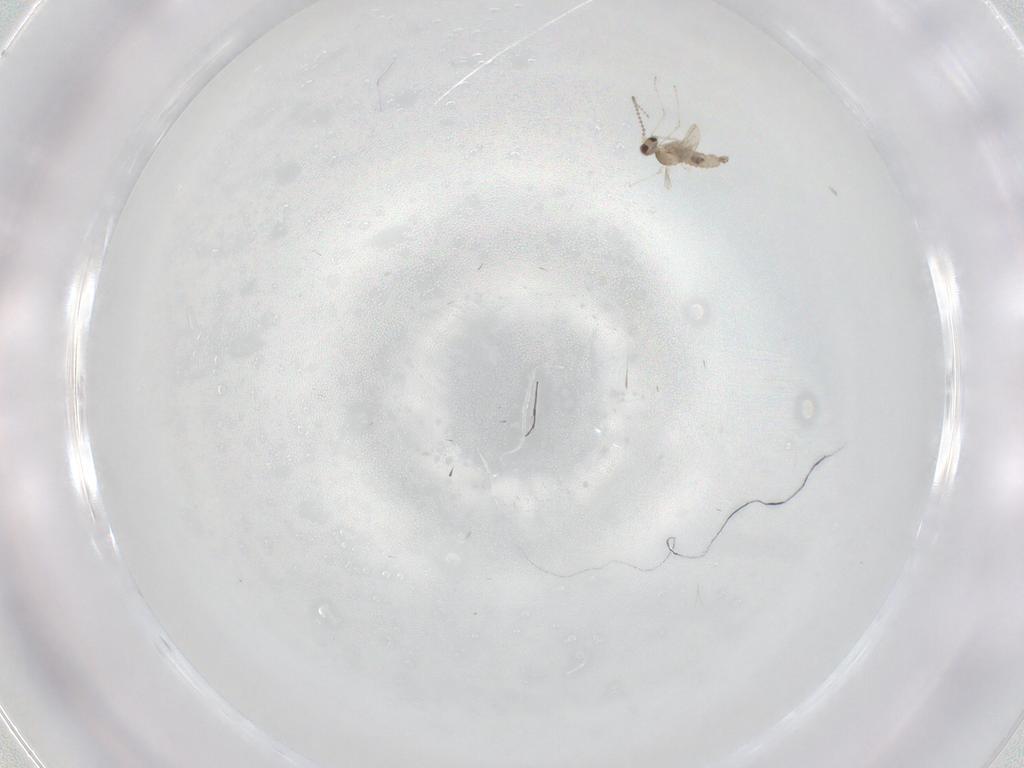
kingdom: Animalia
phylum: Arthropoda
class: Insecta
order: Diptera
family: Cecidomyiidae
